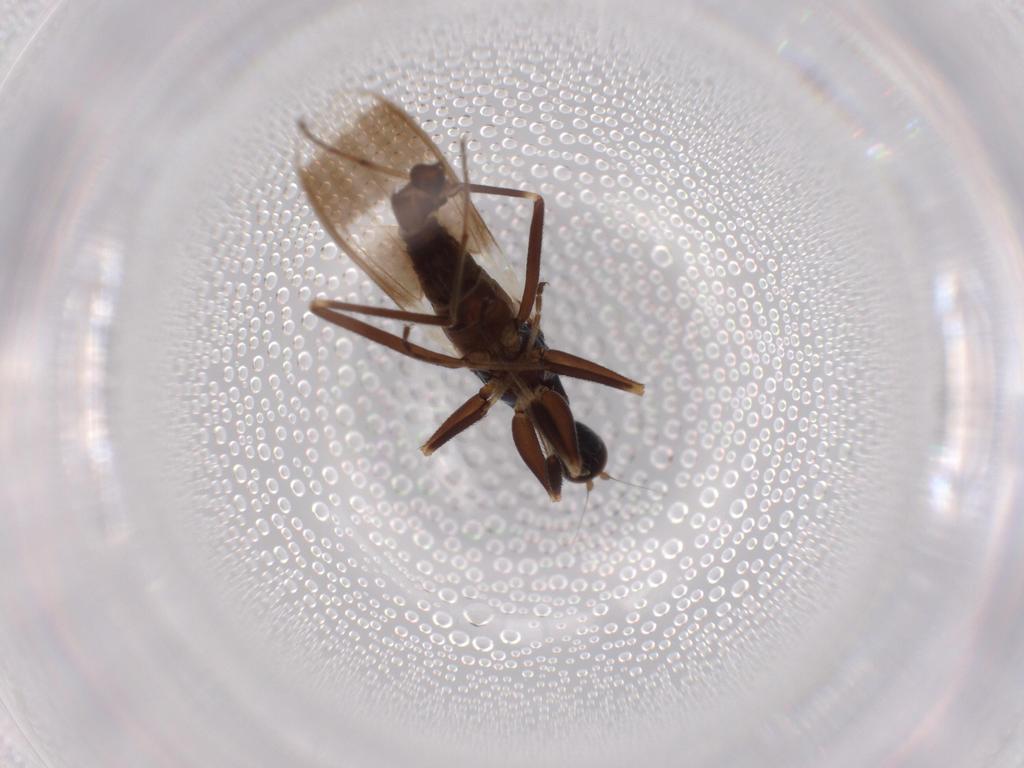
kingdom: Animalia
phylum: Arthropoda
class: Insecta
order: Diptera
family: Hybotidae
